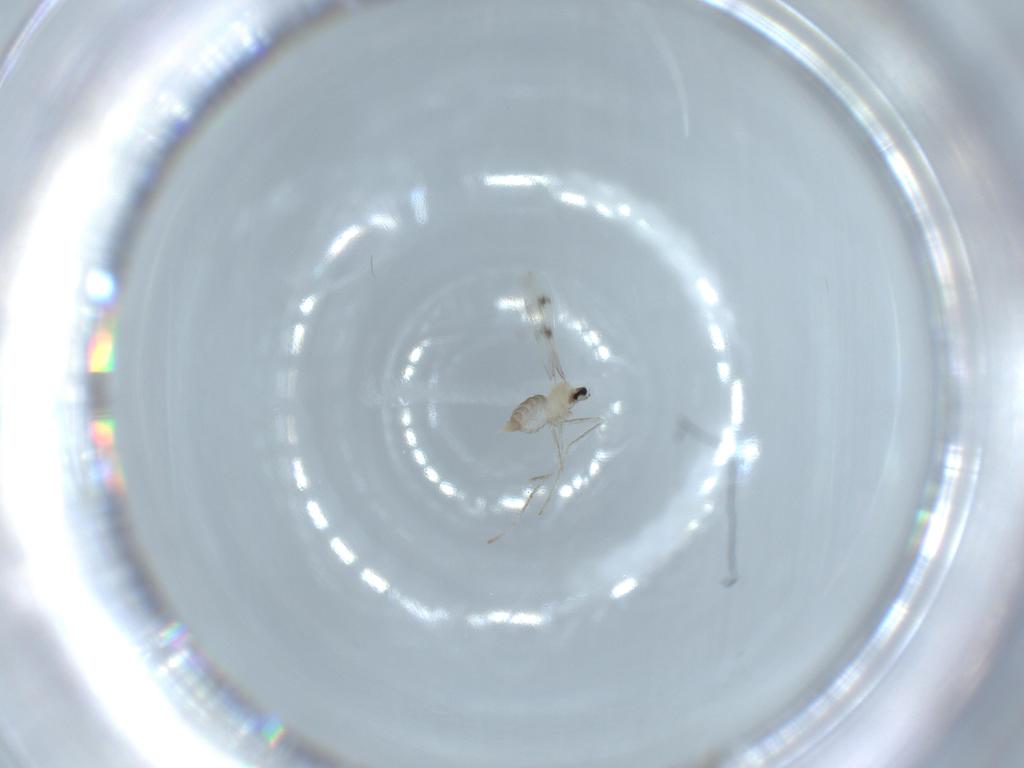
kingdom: Animalia
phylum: Arthropoda
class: Insecta
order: Diptera
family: Cecidomyiidae
